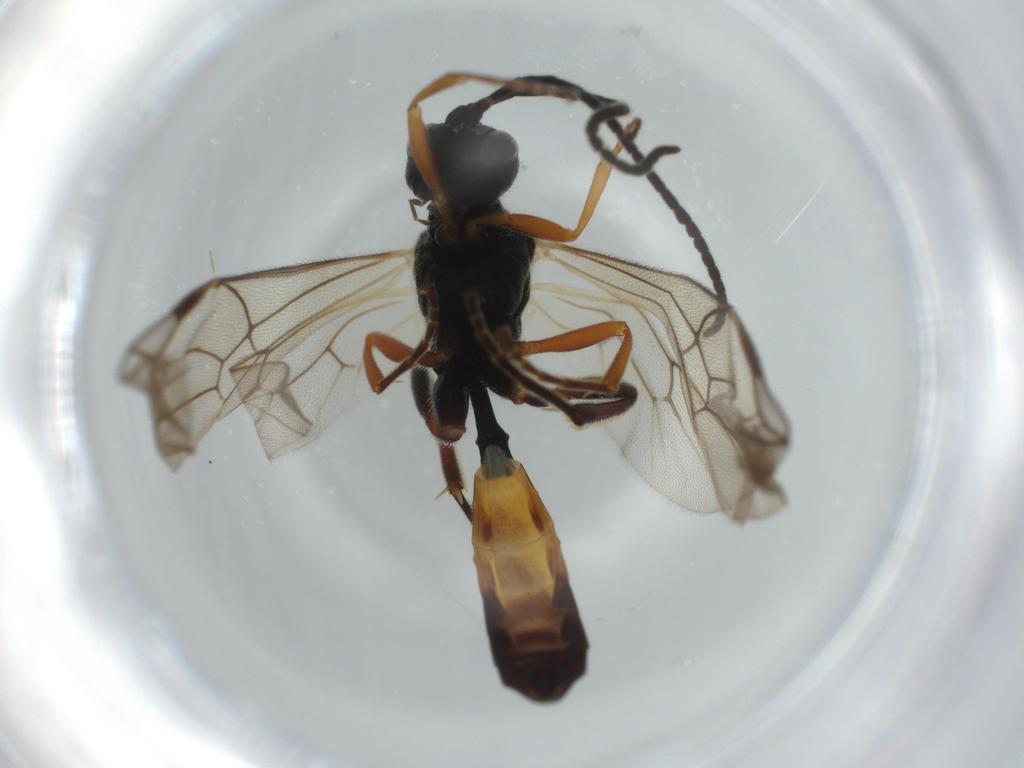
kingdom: Animalia
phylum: Arthropoda
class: Insecta
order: Hymenoptera
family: Ichneumonidae
